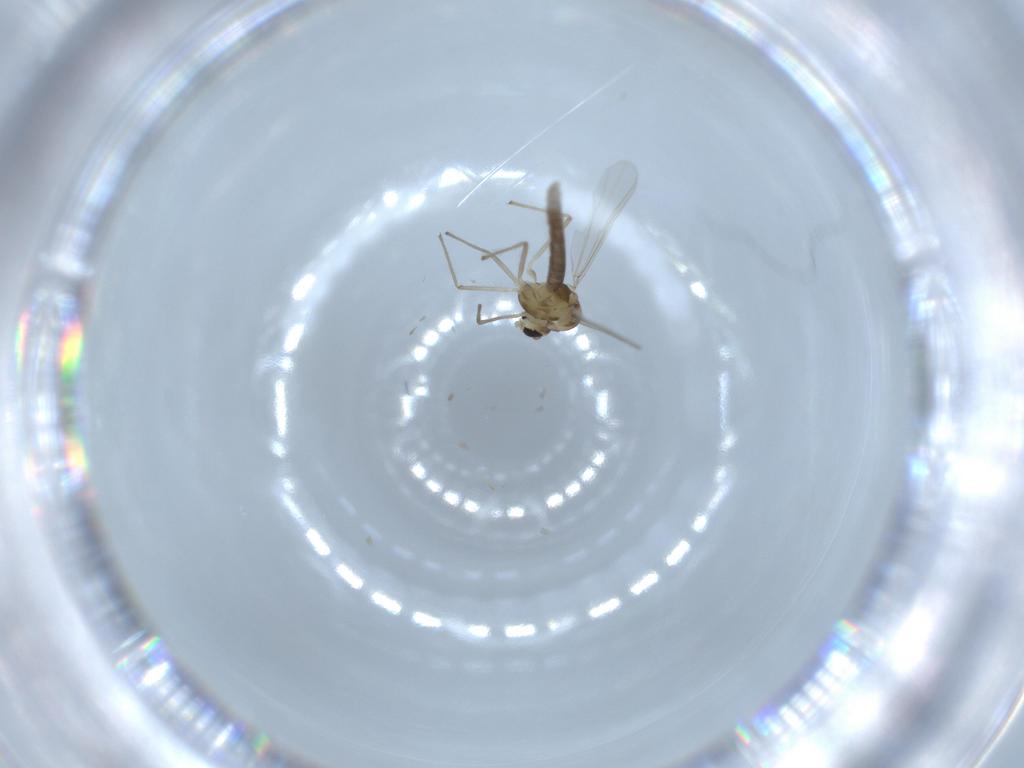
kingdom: Animalia
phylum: Arthropoda
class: Insecta
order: Diptera
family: Chironomidae
